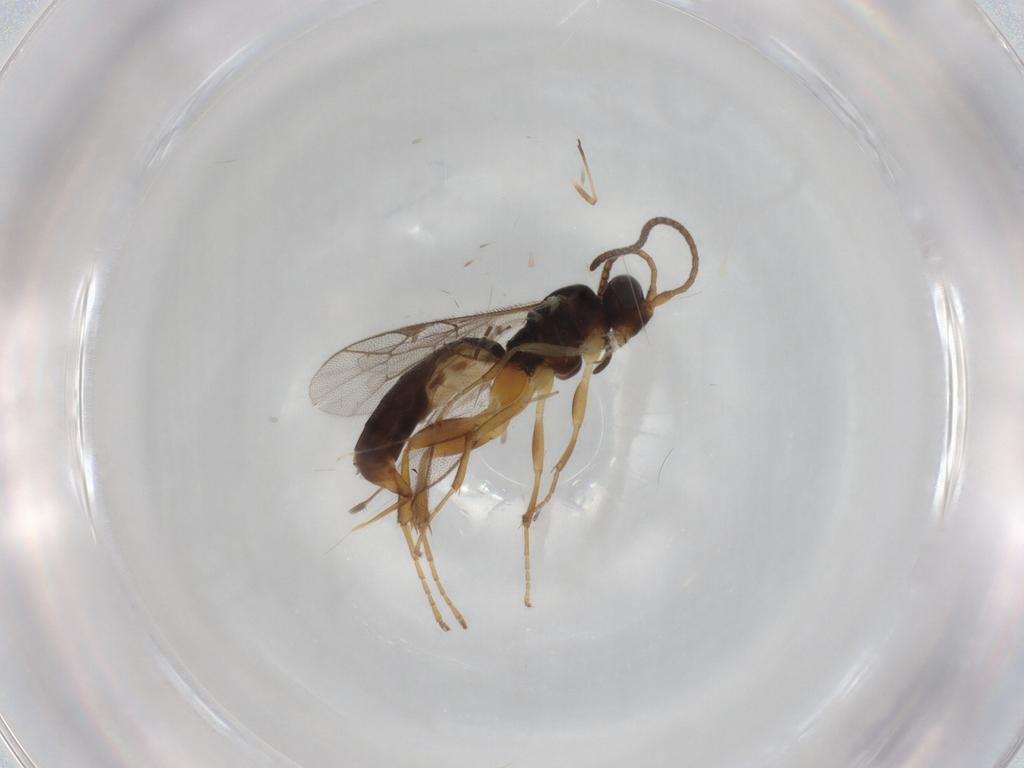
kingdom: Animalia
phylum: Arthropoda
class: Insecta
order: Hymenoptera
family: Ichneumonidae
